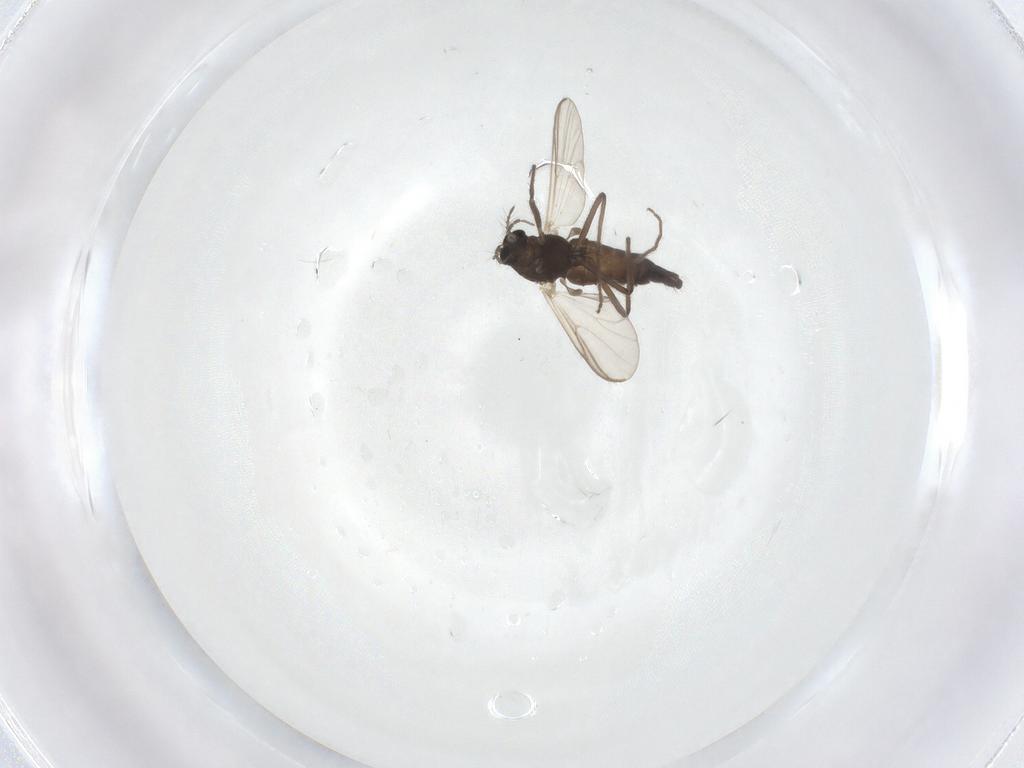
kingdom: Animalia
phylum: Arthropoda
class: Insecta
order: Diptera
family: Chironomidae
